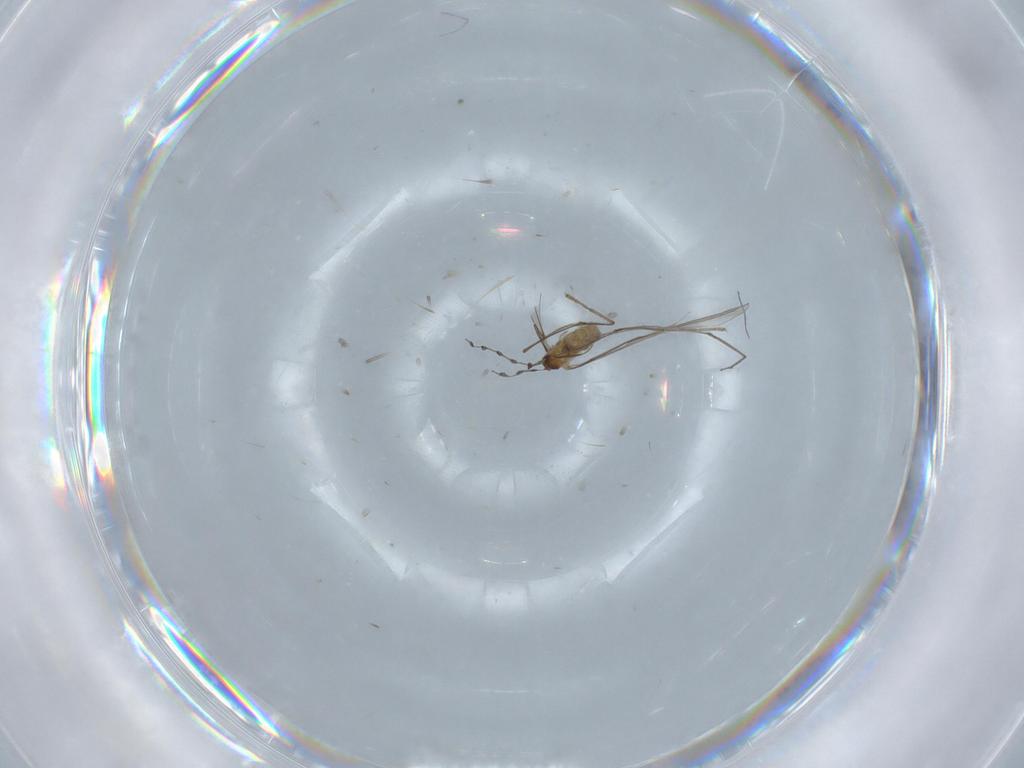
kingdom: Animalia
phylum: Arthropoda
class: Insecta
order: Diptera
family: Cecidomyiidae
